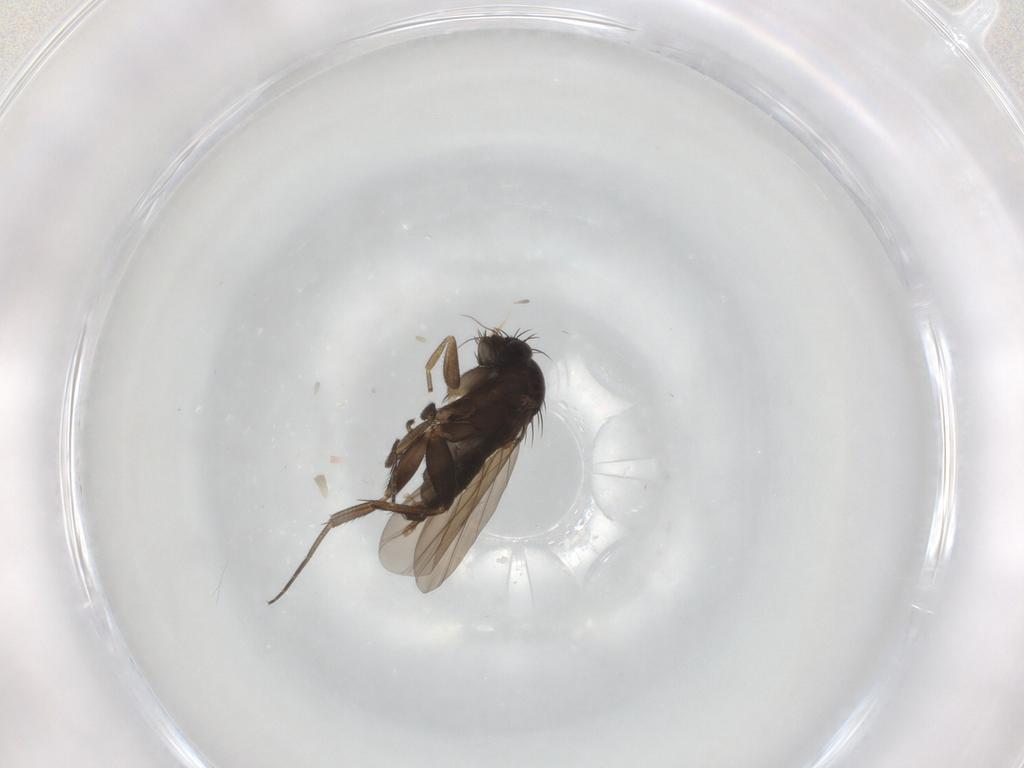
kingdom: Animalia
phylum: Arthropoda
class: Insecta
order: Diptera
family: Phoridae
